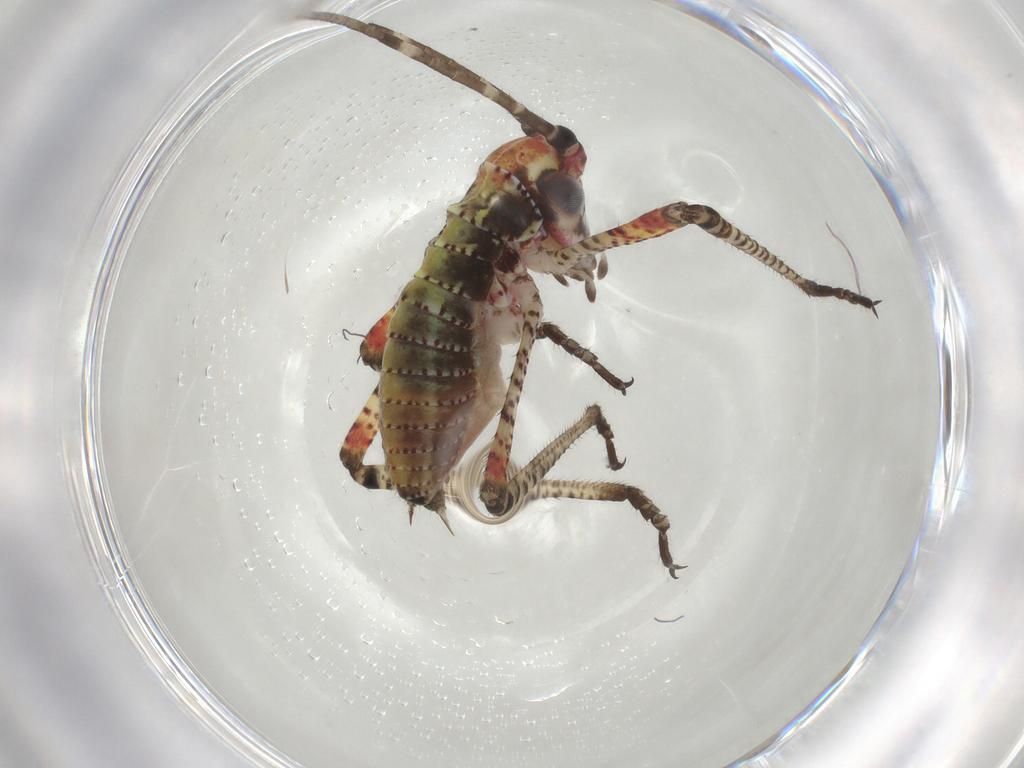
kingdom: Animalia
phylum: Arthropoda
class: Insecta
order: Orthoptera
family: Tettigoniidae
